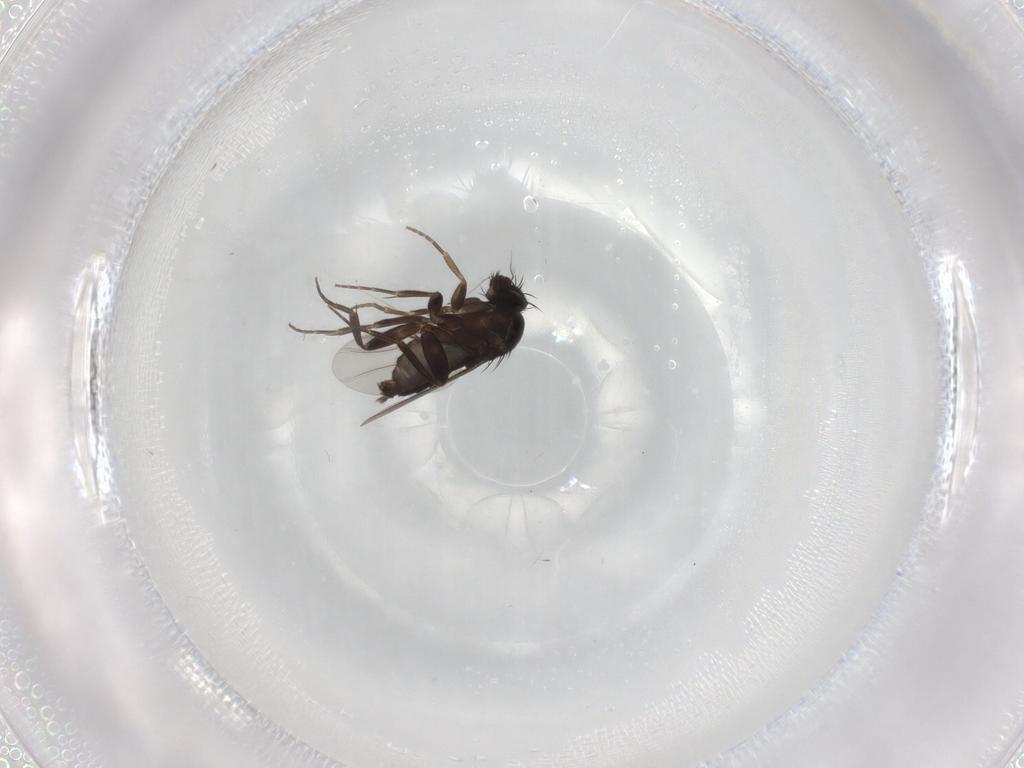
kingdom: Animalia
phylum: Arthropoda
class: Insecta
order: Diptera
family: Phoridae
